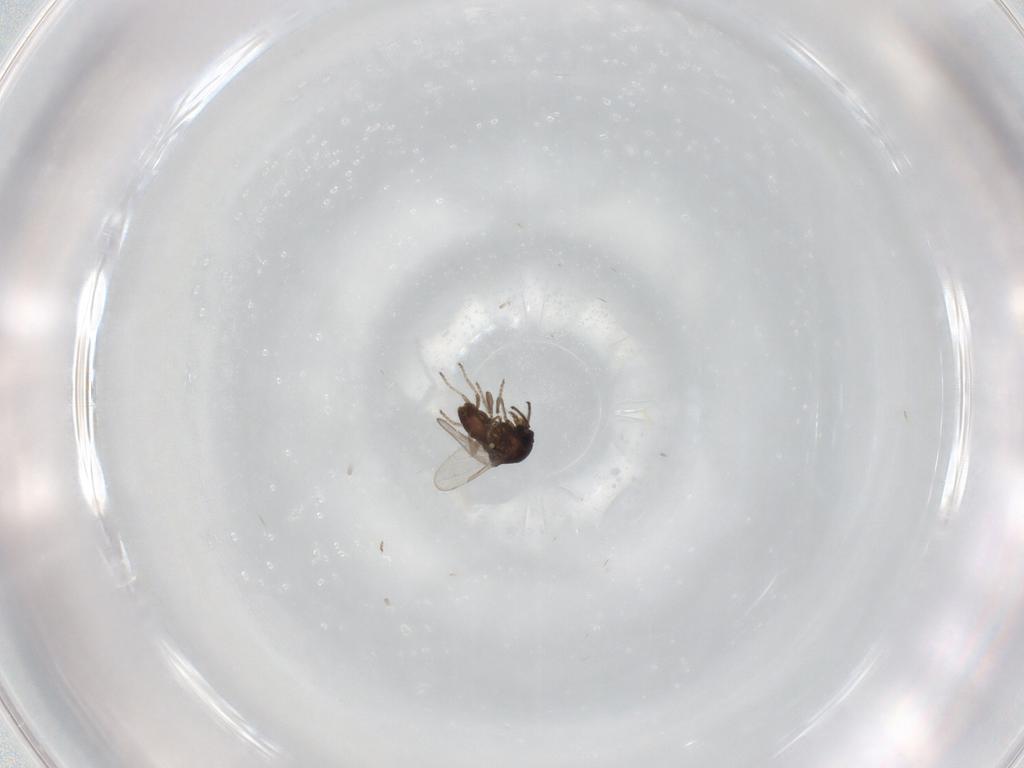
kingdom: Animalia
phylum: Arthropoda
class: Insecta
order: Diptera
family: Ceratopogonidae
